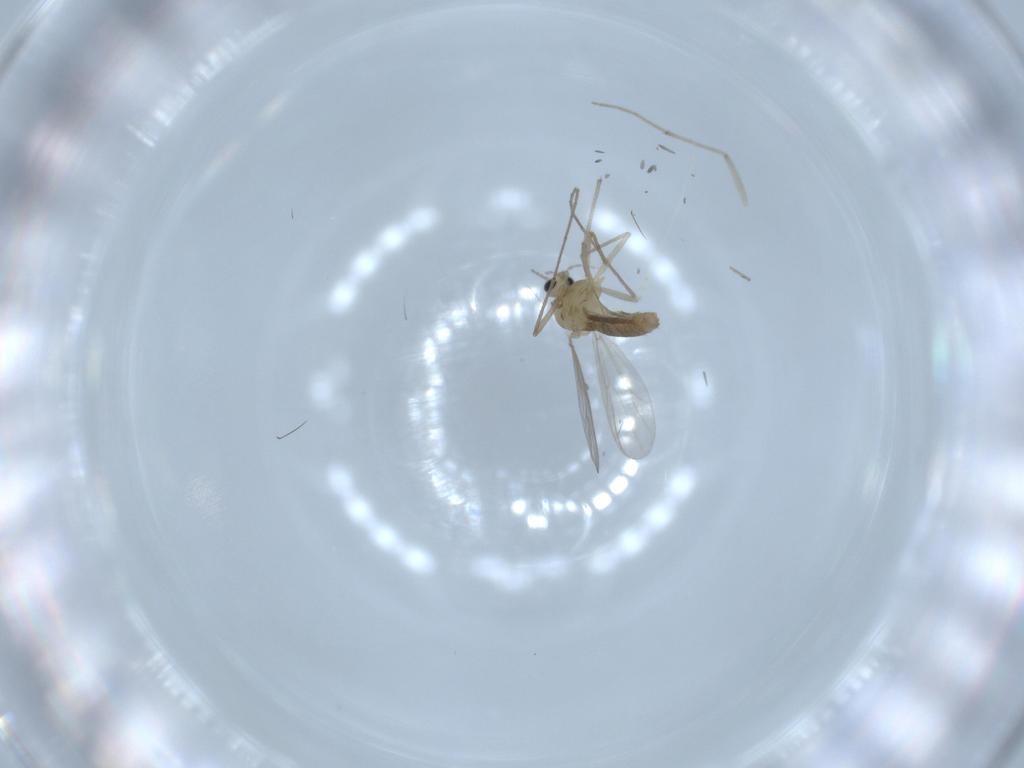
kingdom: Animalia
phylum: Arthropoda
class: Insecta
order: Diptera
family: Chironomidae
